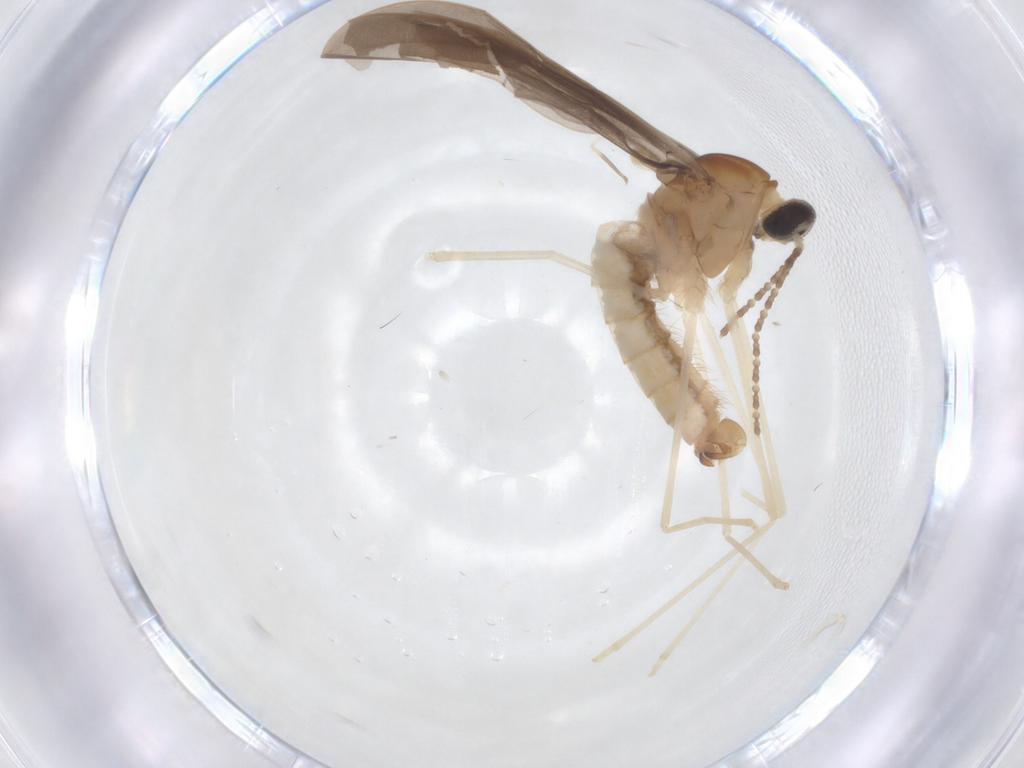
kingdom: Animalia
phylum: Arthropoda
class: Insecta
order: Diptera
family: Cecidomyiidae
